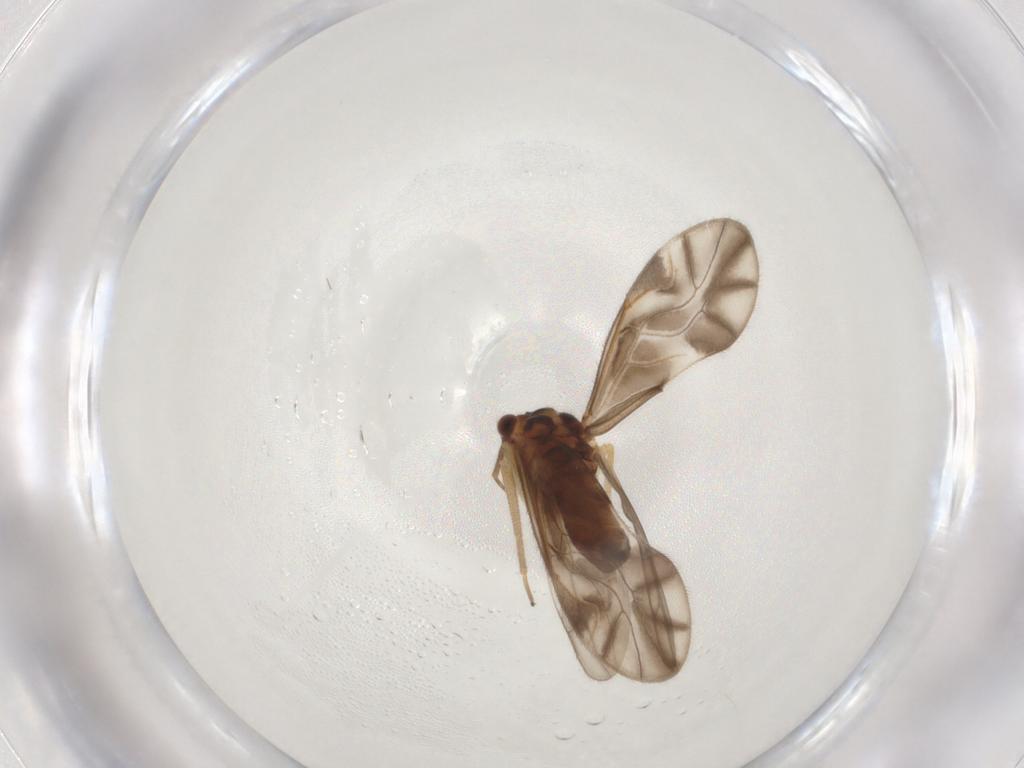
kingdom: Animalia
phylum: Arthropoda
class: Insecta
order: Psocodea
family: Caeciliusidae
